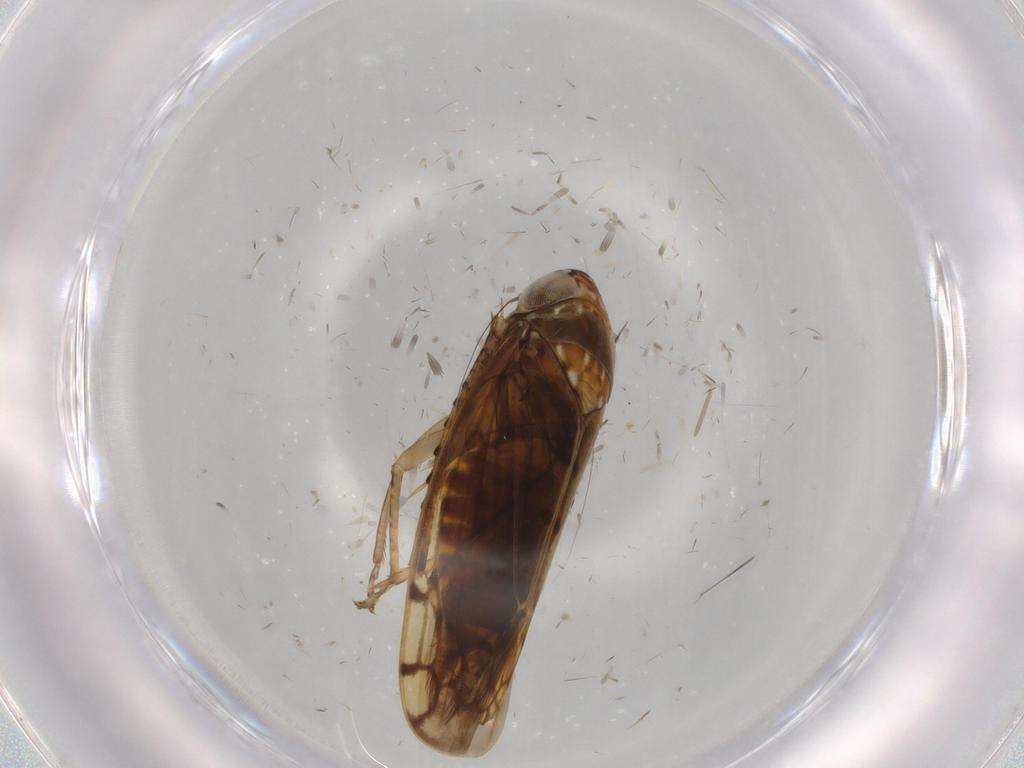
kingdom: Animalia
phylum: Arthropoda
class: Insecta
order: Hemiptera
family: Cicadellidae
